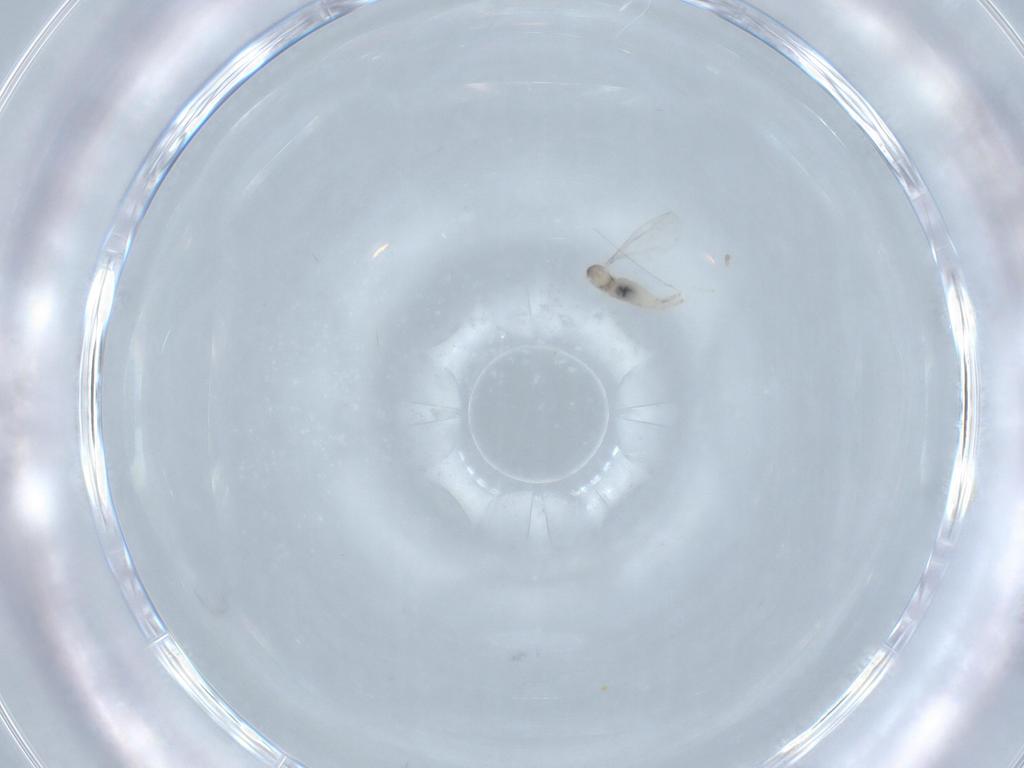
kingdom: Animalia
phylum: Arthropoda
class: Insecta
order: Diptera
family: Cecidomyiidae
